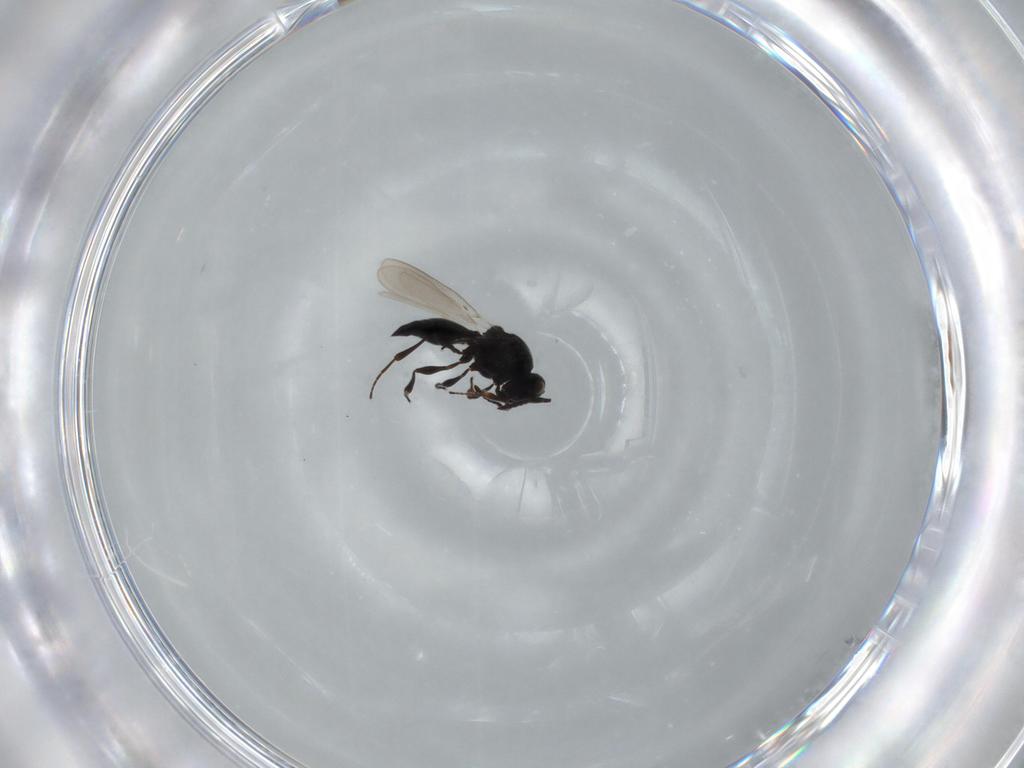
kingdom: Animalia
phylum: Arthropoda
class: Insecta
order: Diptera
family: Mythicomyiidae
